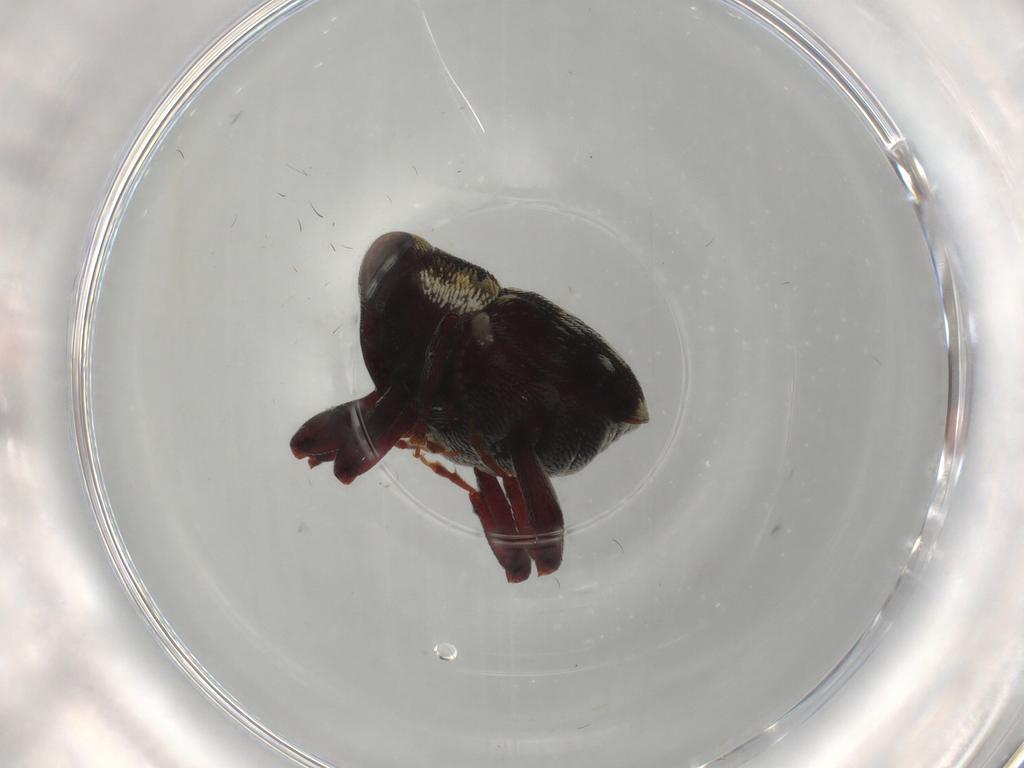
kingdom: Animalia
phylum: Arthropoda
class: Insecta
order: Coleoptera
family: Curculionidae
